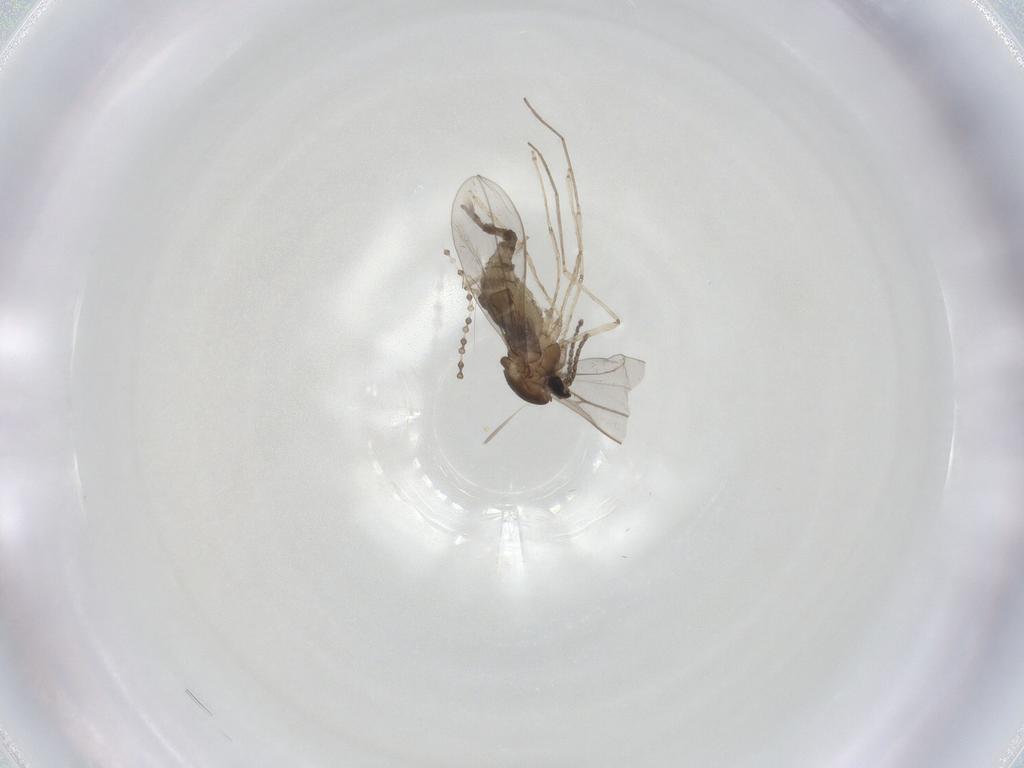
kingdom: Animalia
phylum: Arthropoda
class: Insecta
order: Diptera
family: Cecidomyiidae
